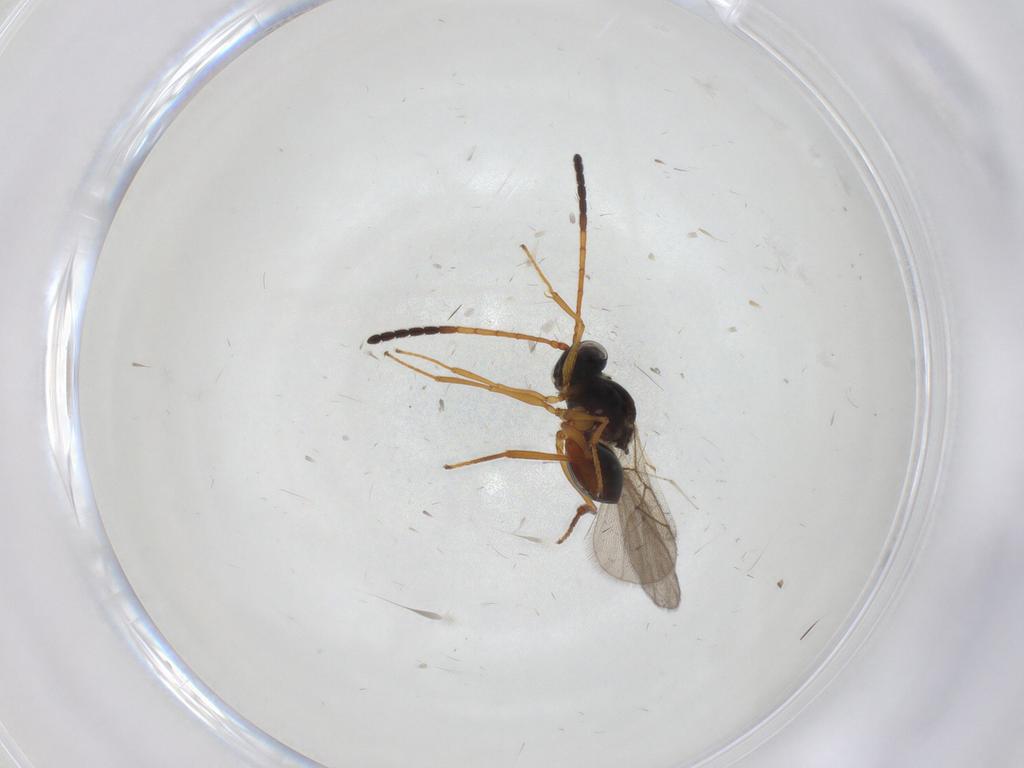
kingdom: Animalia
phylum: Arthropoda
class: Insecta
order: Hymenoptera
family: Figitidae
